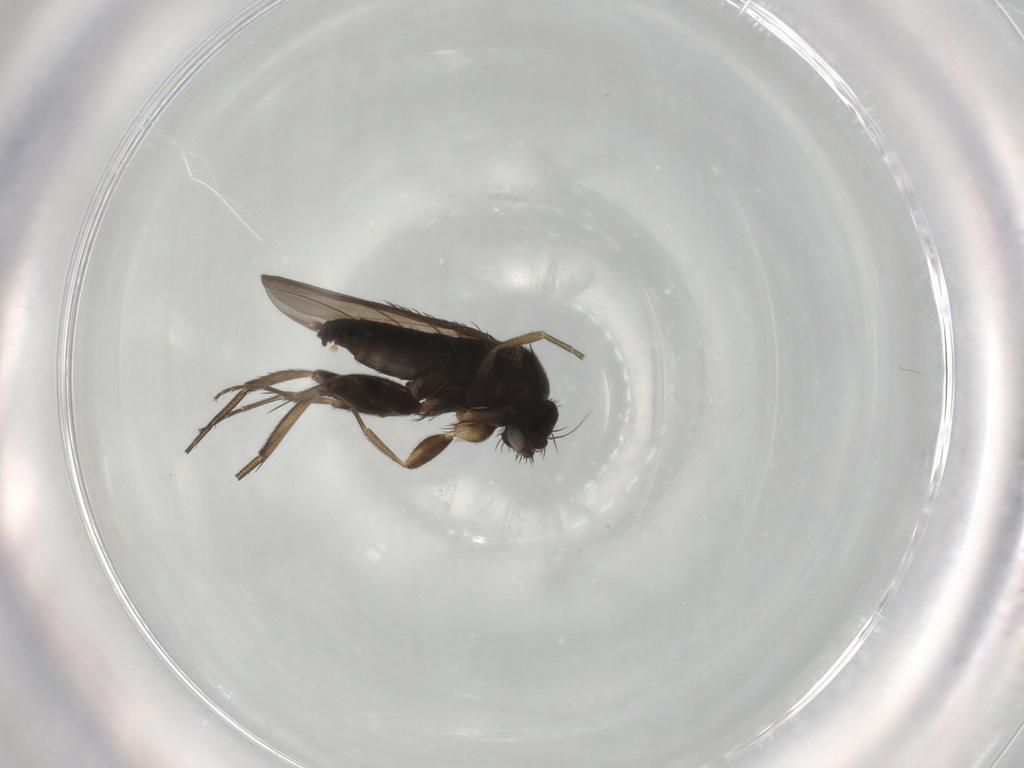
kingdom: Animalia
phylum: Arthropoda
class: Insecta
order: Diptera
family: Phoridae
